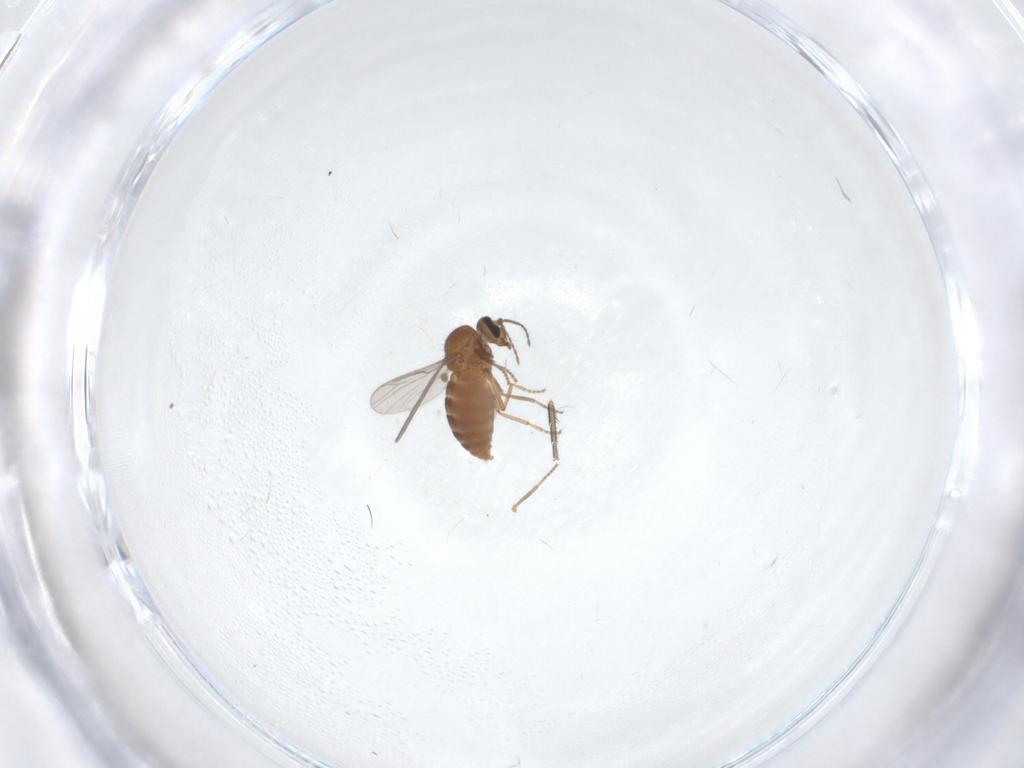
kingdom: Animalia
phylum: Arthropoda
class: Insecta
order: Diptera
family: Ceratopogonidae
